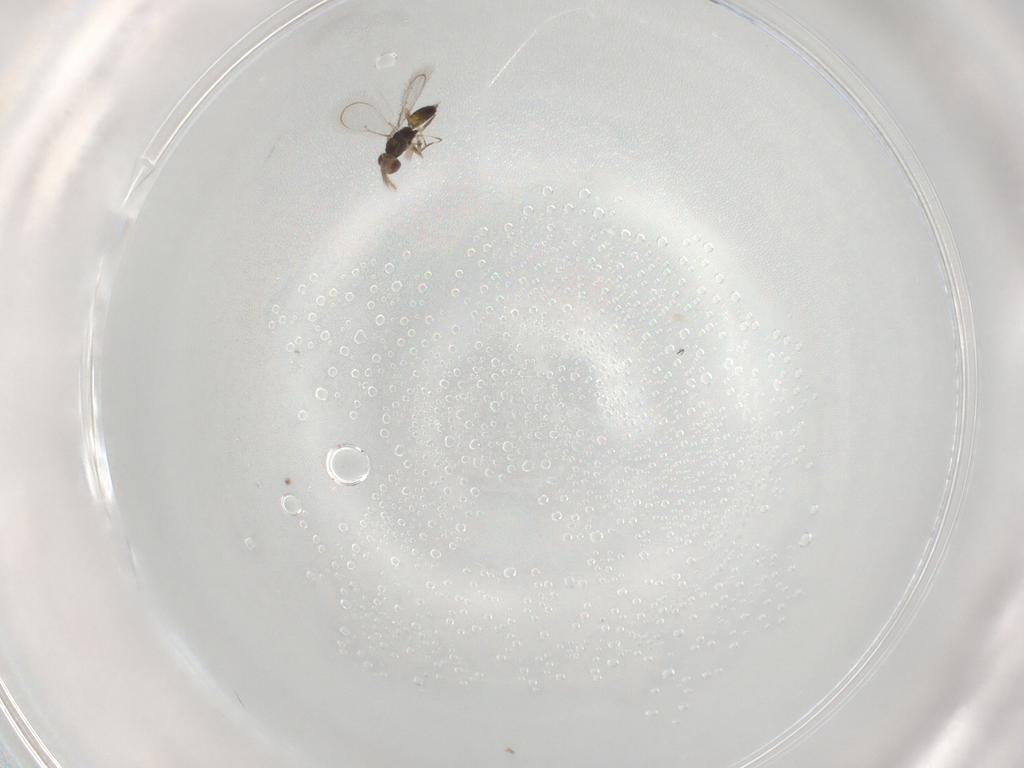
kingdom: Animalia
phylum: Arthropoda
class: Insecta
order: Hymenoptera
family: Eulophidae
